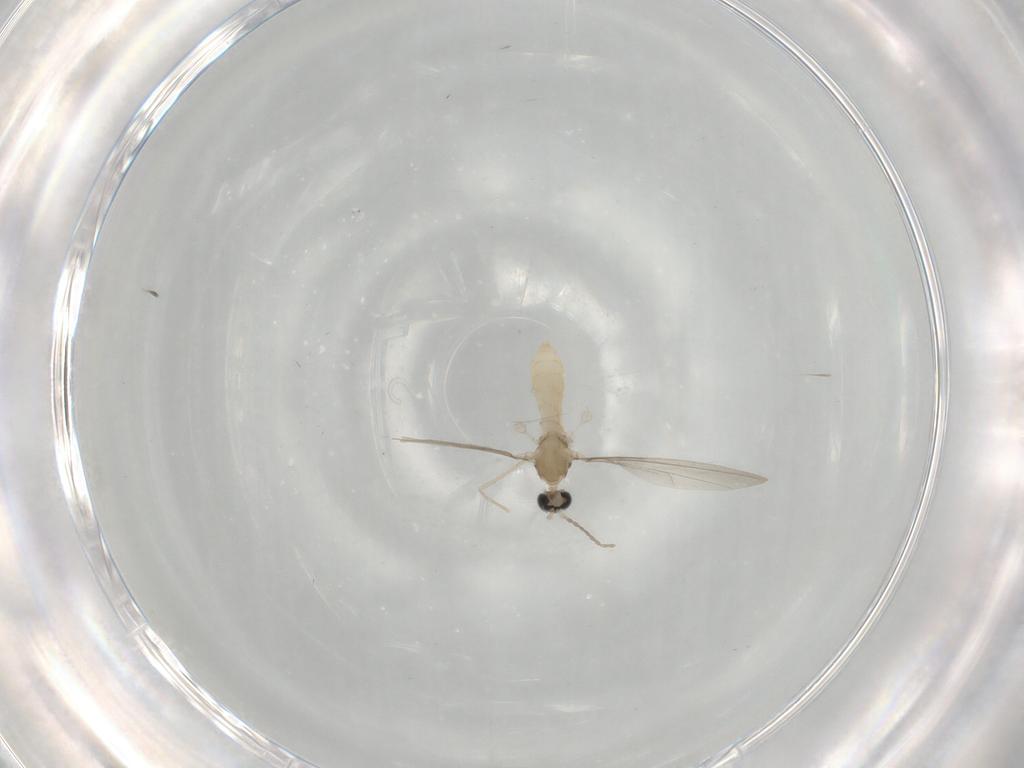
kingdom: Animalia
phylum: Arthropoda
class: Insecta
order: Diptera
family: Cecidomyiidae
